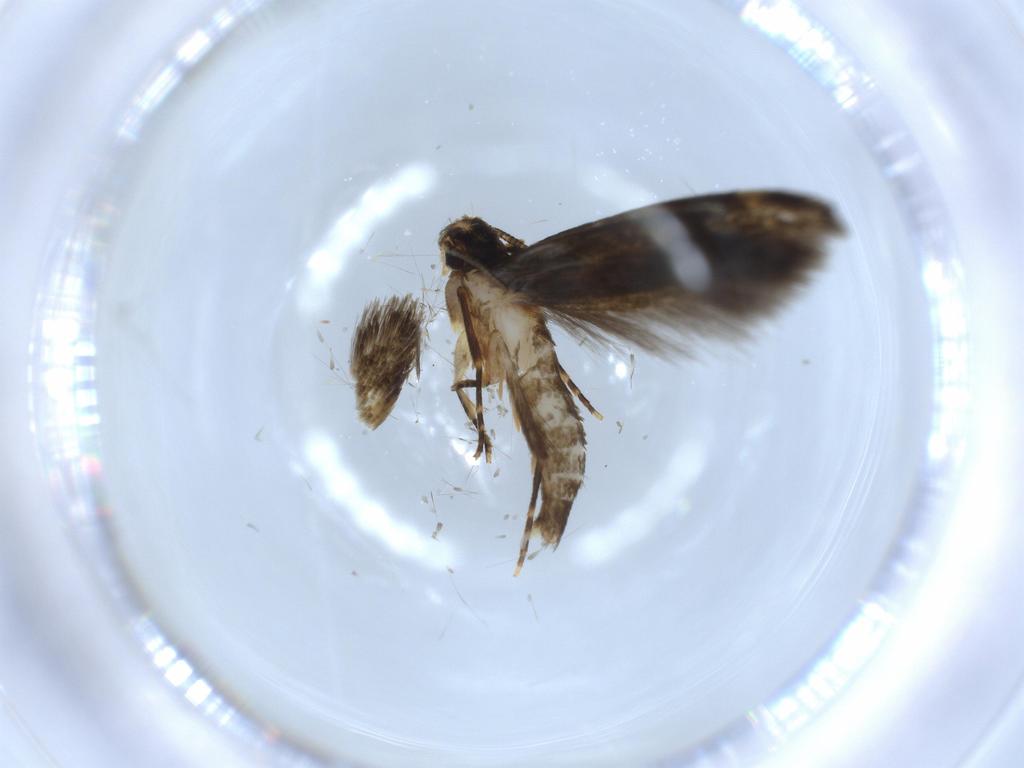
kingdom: Animalia
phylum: Arthropoda
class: Insecta
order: Lepidoptera
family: Tineidae
